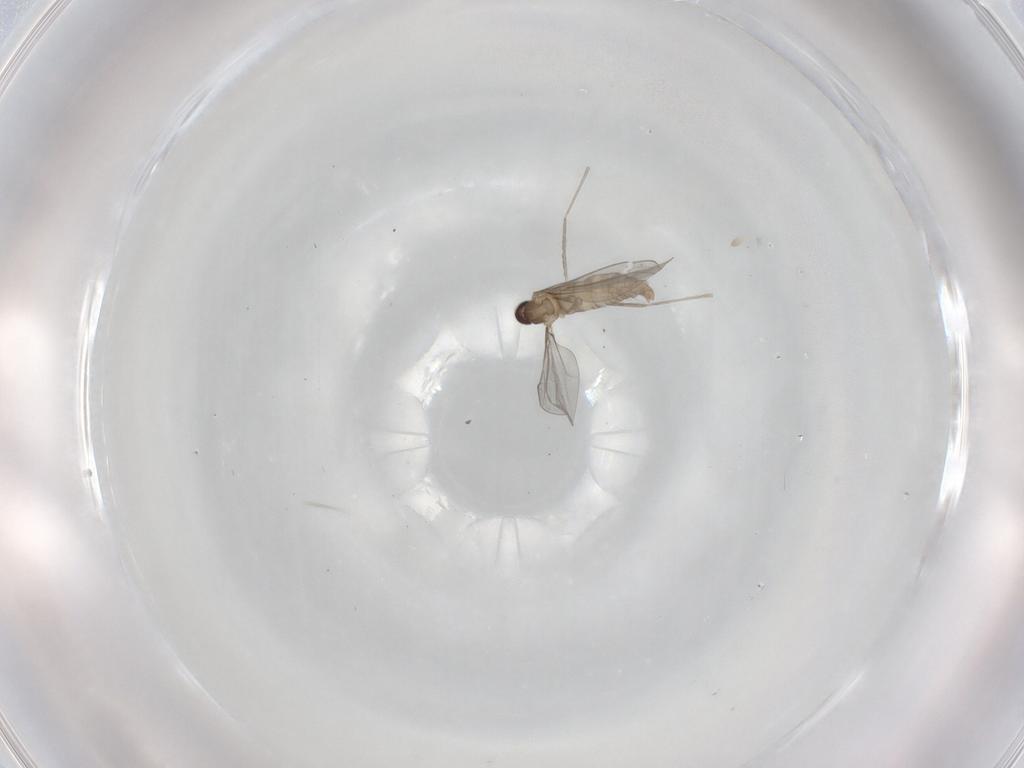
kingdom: Animalia
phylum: Arthropoda
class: Insecta
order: Diptera
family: Cecidomyiidae
